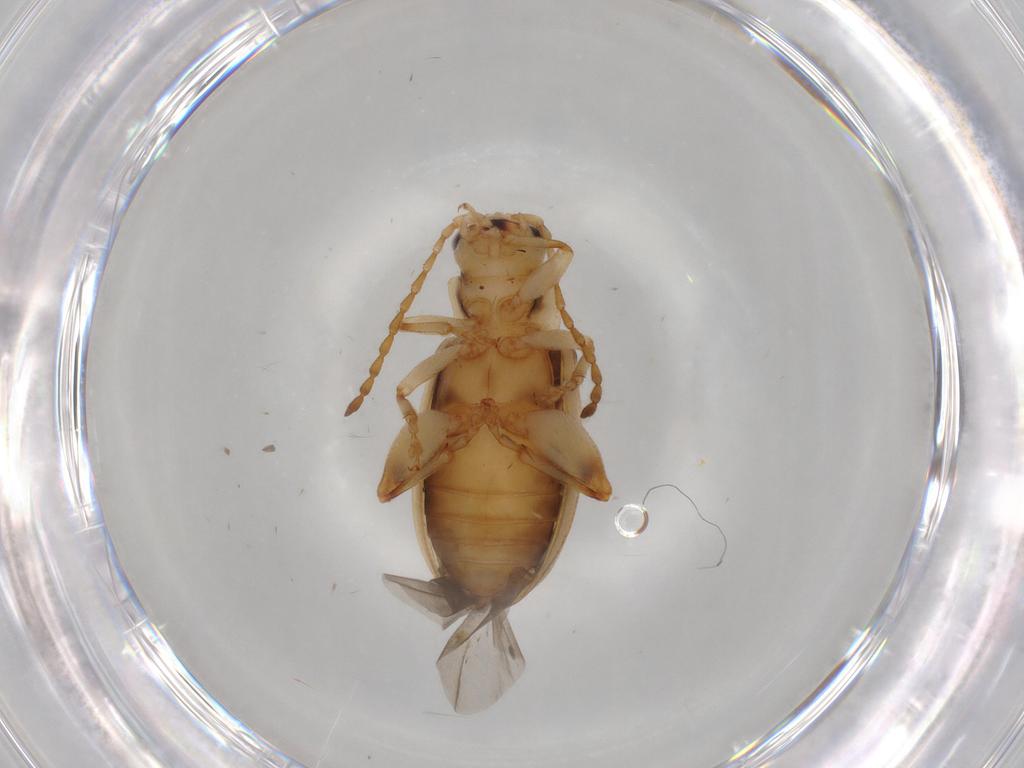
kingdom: Animalia
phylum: Arthropoda
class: Insecta
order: Coleoptera
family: Chrysomelidae
